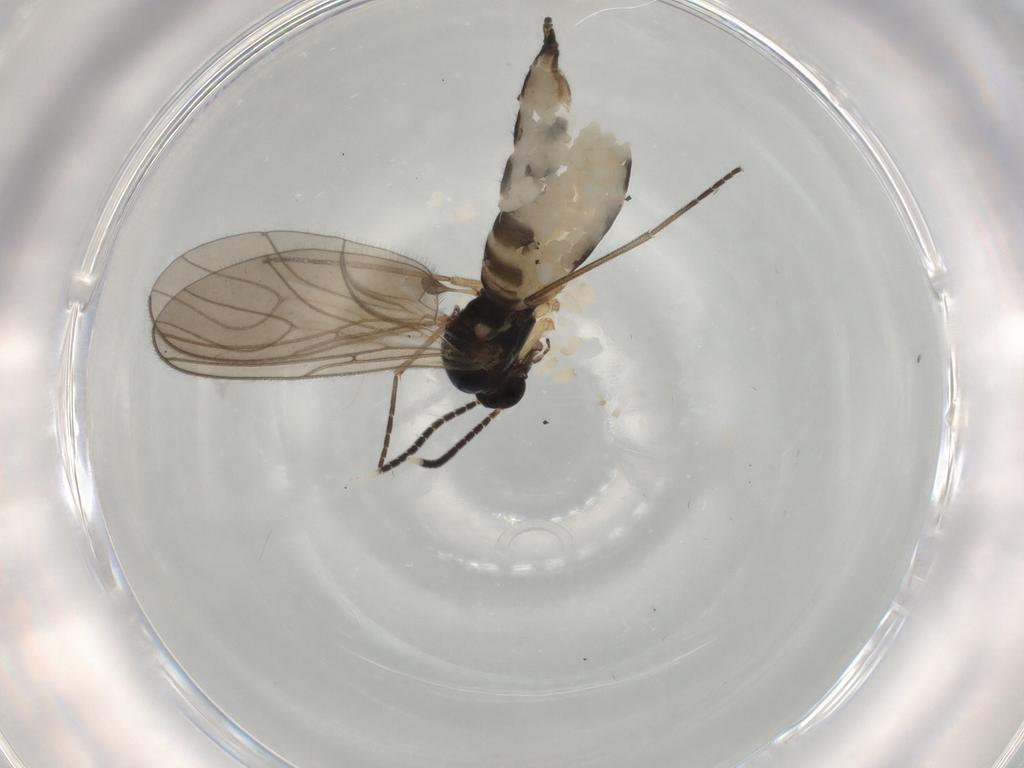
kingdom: Animalia
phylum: Arthropoda
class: Insecta
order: Diptera
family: Sciaridae
